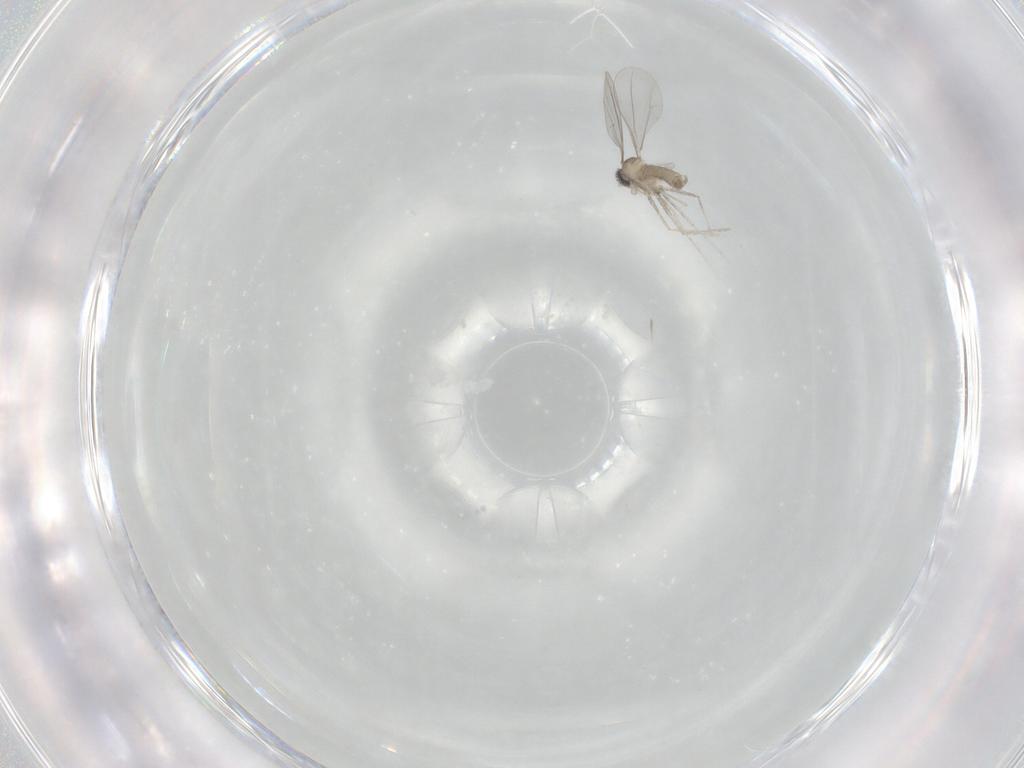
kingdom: Animalia
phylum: Arthropoda
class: Insecta
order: Diptera
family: Cecidomyiidae
